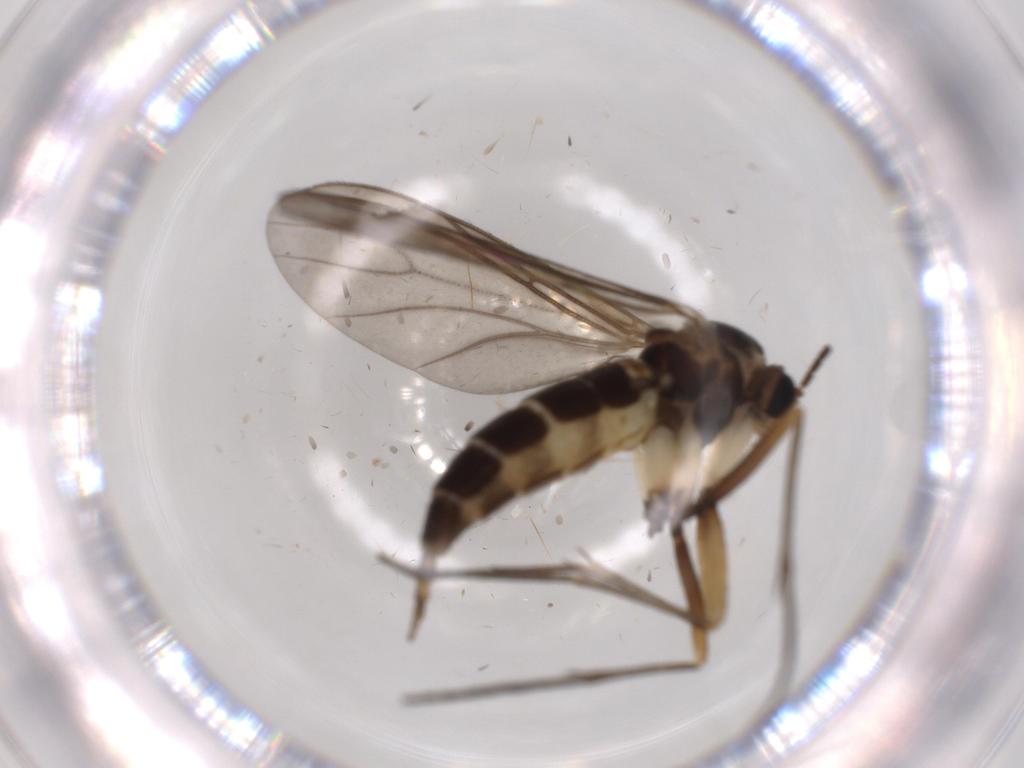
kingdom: Animalia
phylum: Arthropoda
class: Insecta
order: Diptera
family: Sciaridae
